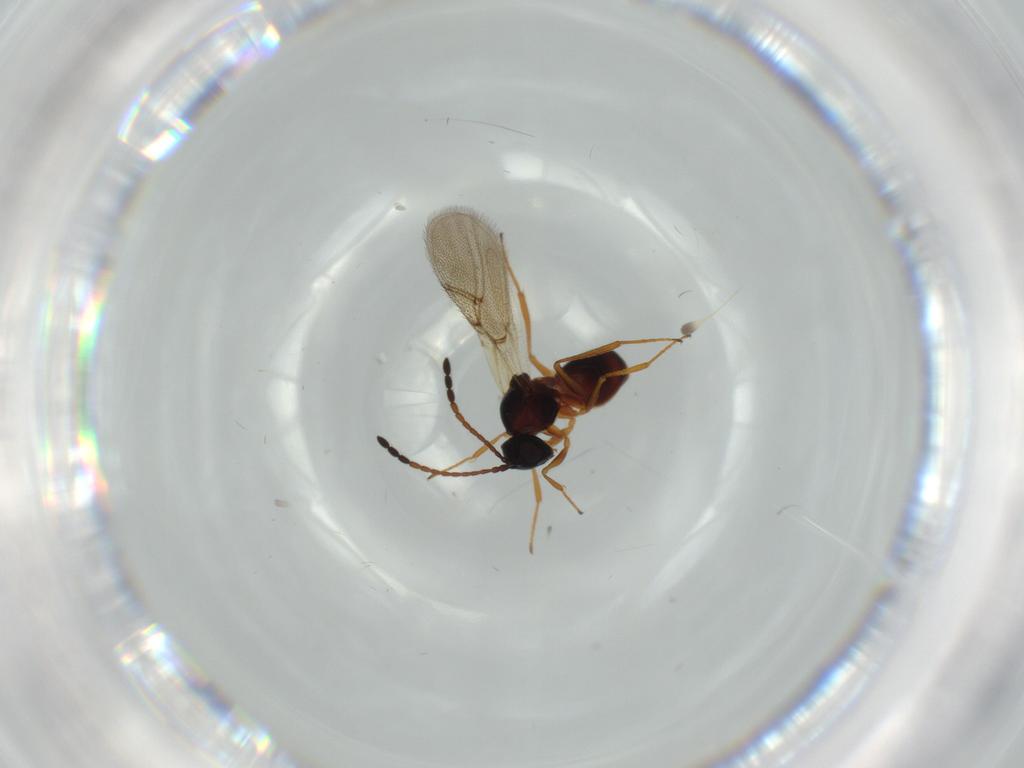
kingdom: Animalia
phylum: Arthropoda
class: Insecta
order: Hymenoptera
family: Figitidae
